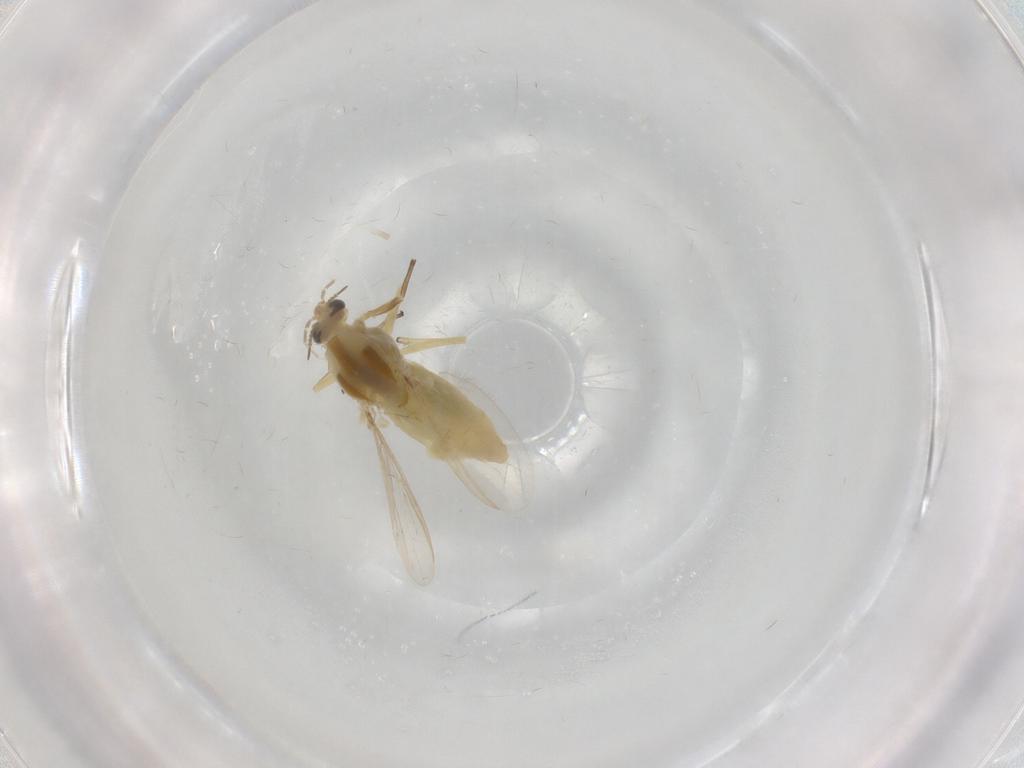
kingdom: Animalia
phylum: Arthropoda
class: Insecta
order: Diptera
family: Chironomidae
